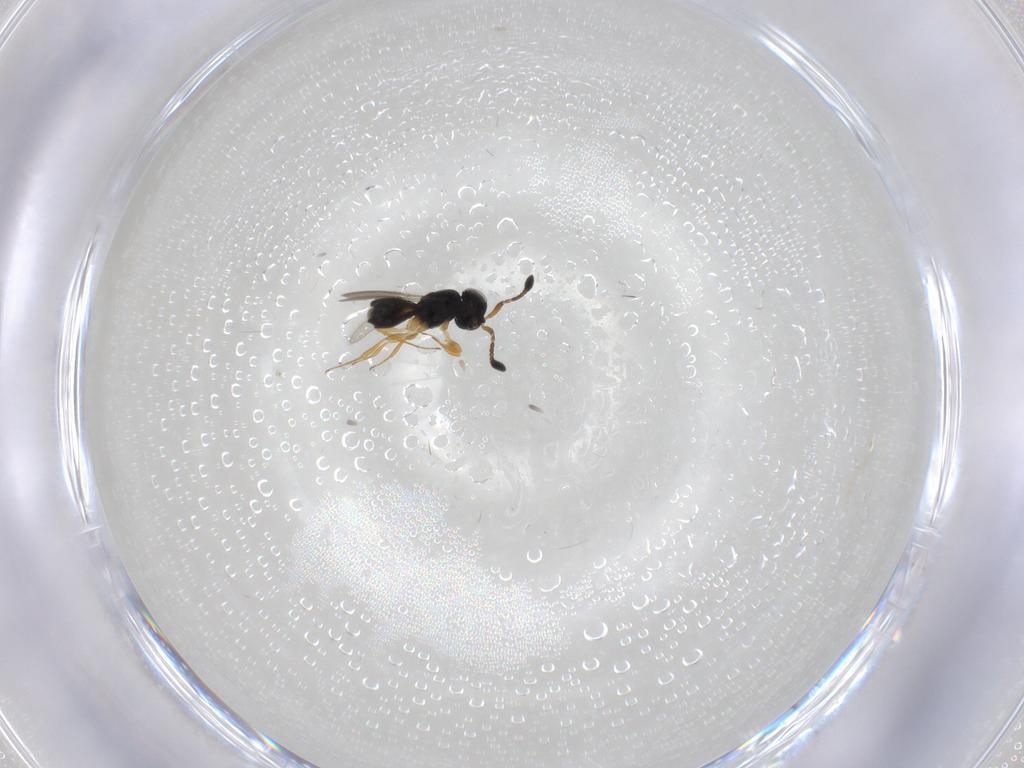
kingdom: Animalia
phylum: Arthropoda
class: Insecta
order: Hymenoptera
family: Scelionidae
